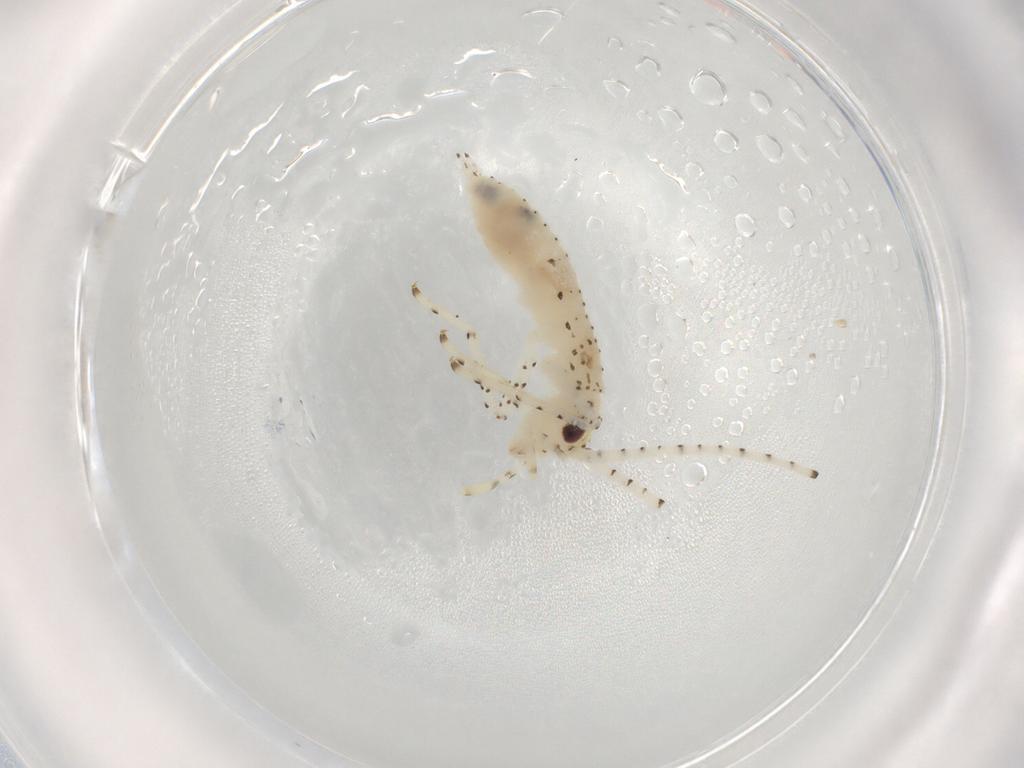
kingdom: Animalia
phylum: Arthropoda
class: Insecta
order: Orthoptera
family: Oecanthidae
